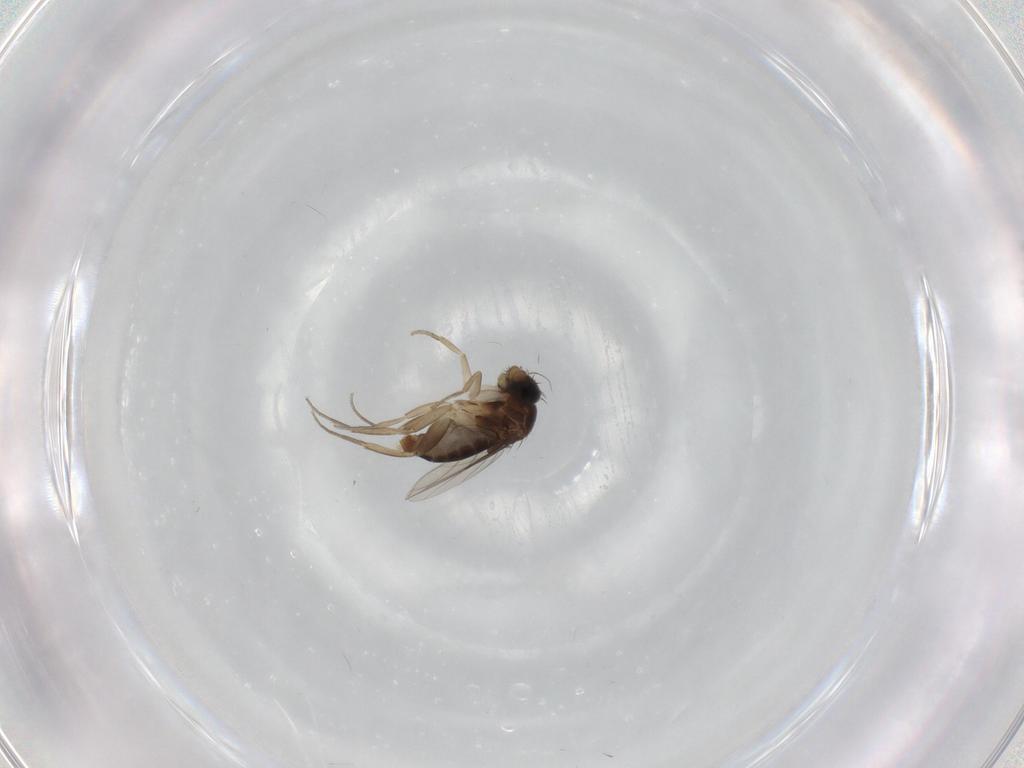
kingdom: Animalia
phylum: Arthropoda
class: Insecta
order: Diptera
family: Phoridae
